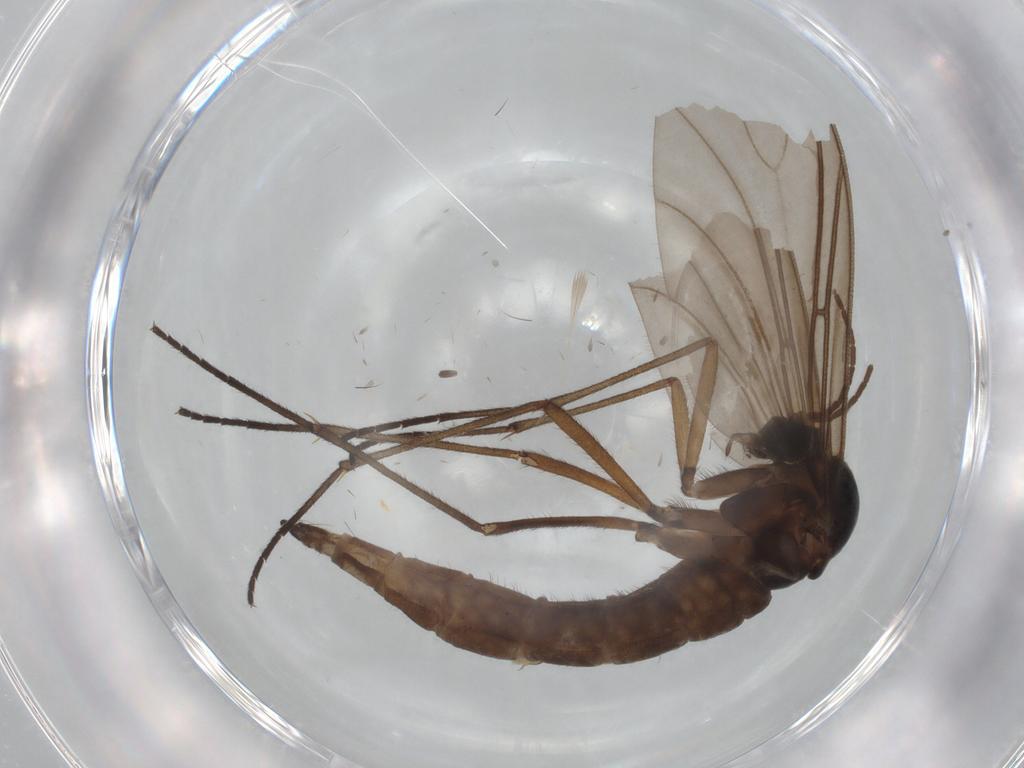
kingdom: Animalia
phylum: Arthropoda
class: Insecta
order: Diptera
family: Sciaridae
